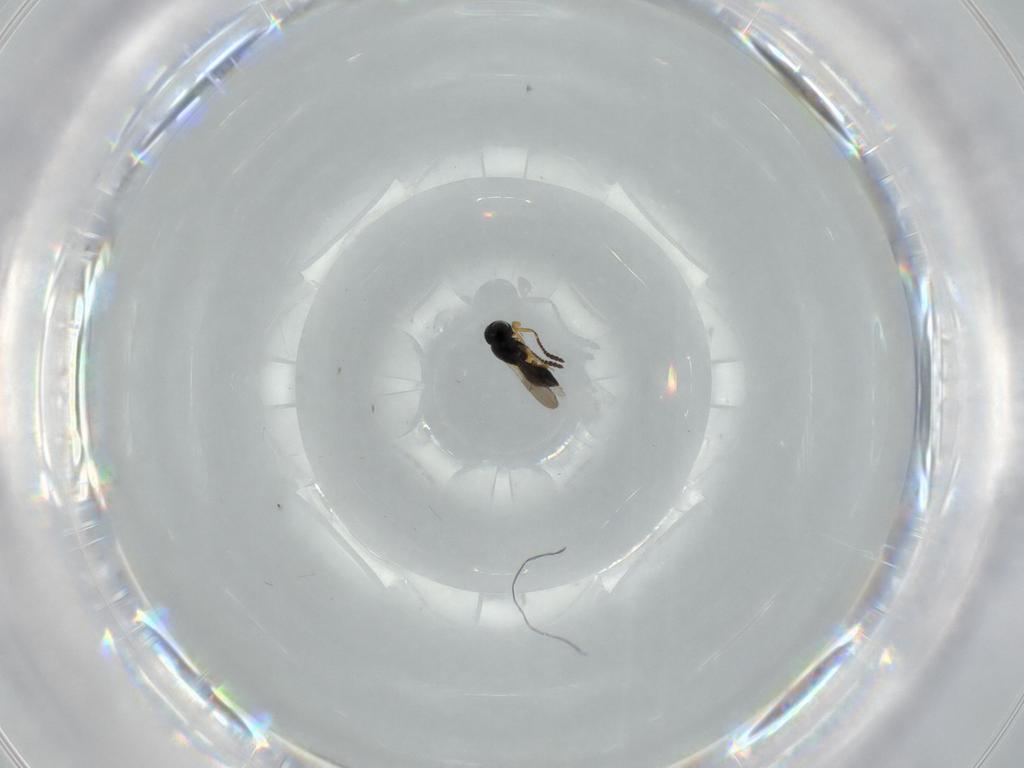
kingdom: Animalia
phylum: Arthropoda
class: Insecta
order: Hymenoptera
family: Scelionidae
